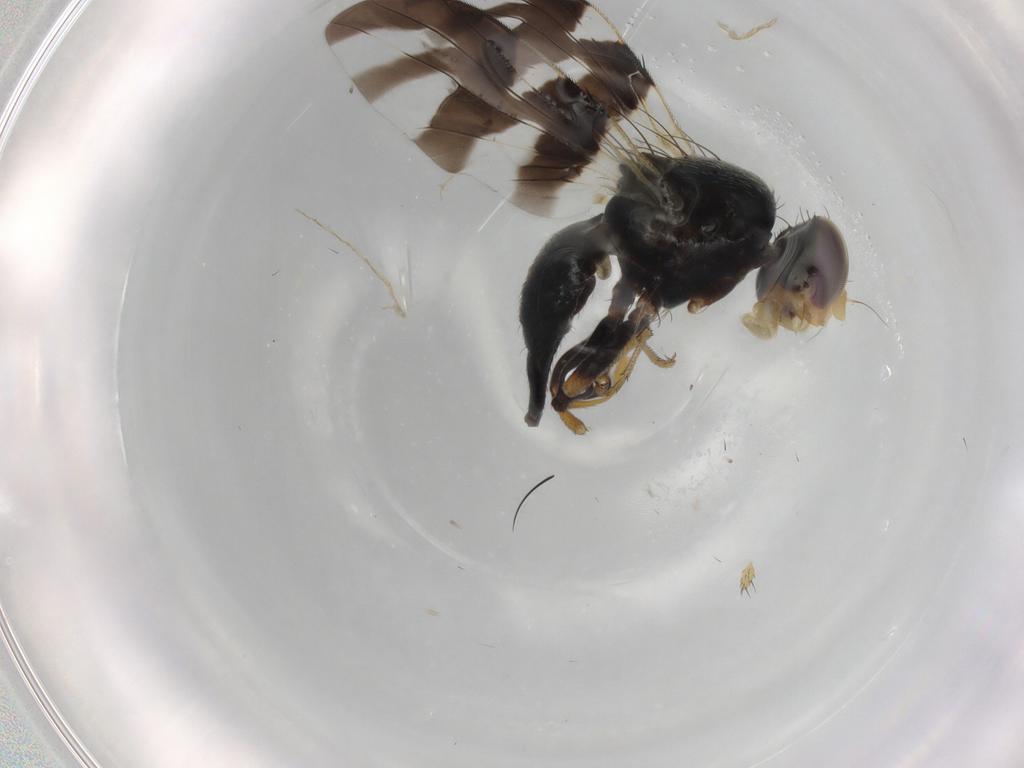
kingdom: Animalia
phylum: Arthropoda
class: Insecta
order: Diptera
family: Tephritidae
